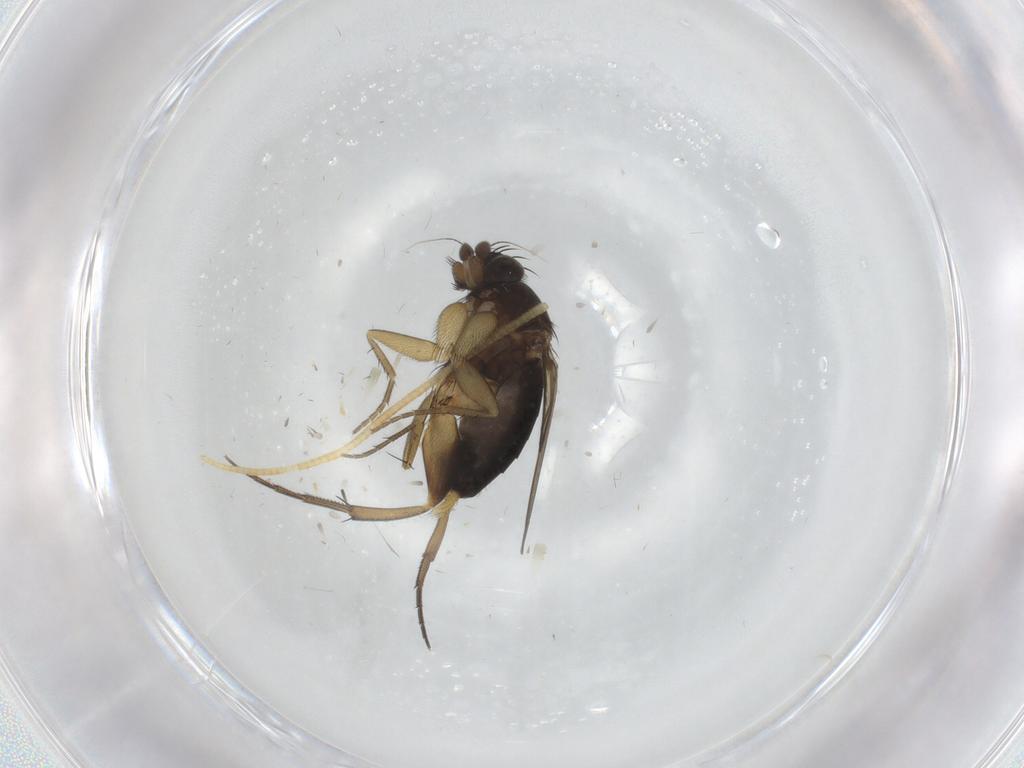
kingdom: Animalia
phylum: Arthropoda
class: Insecta
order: Diptera
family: Phoridae
